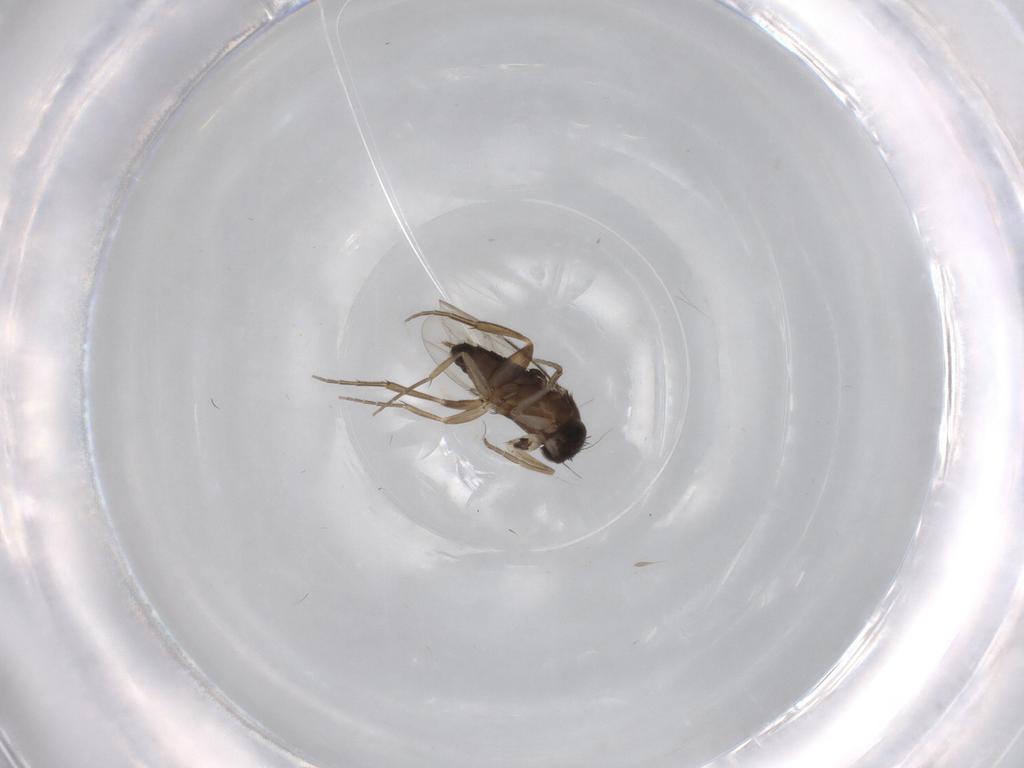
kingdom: Animalia
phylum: Arthropoda
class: Insecta
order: Diptera
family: Cecidomyiidae
